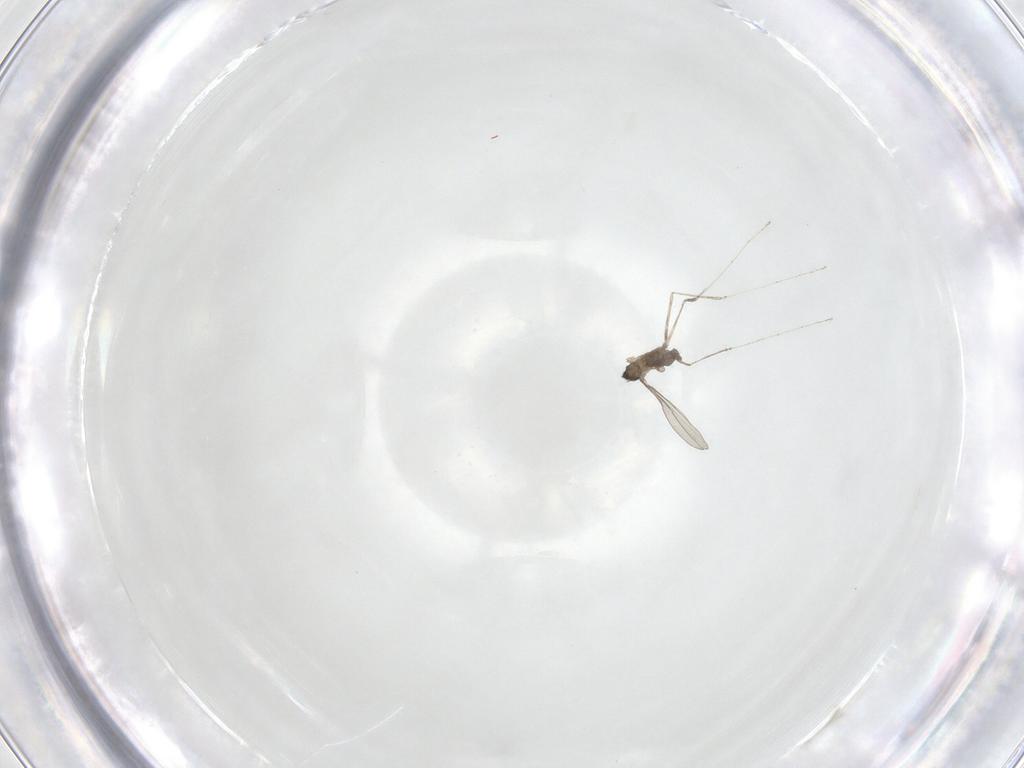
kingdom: Animalia
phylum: Arthropoda
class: Insecta
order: Diptera
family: Cecidomyiidae
